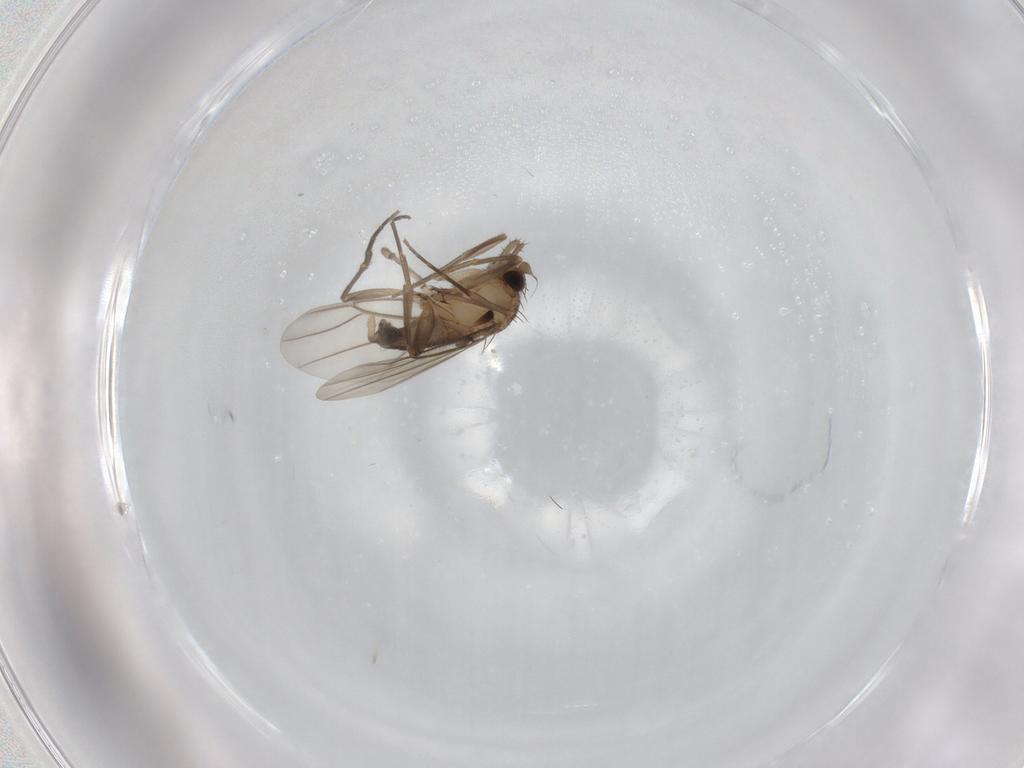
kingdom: Animalia
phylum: Arthropoda
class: Insecta
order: Diptera
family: Phoridae
